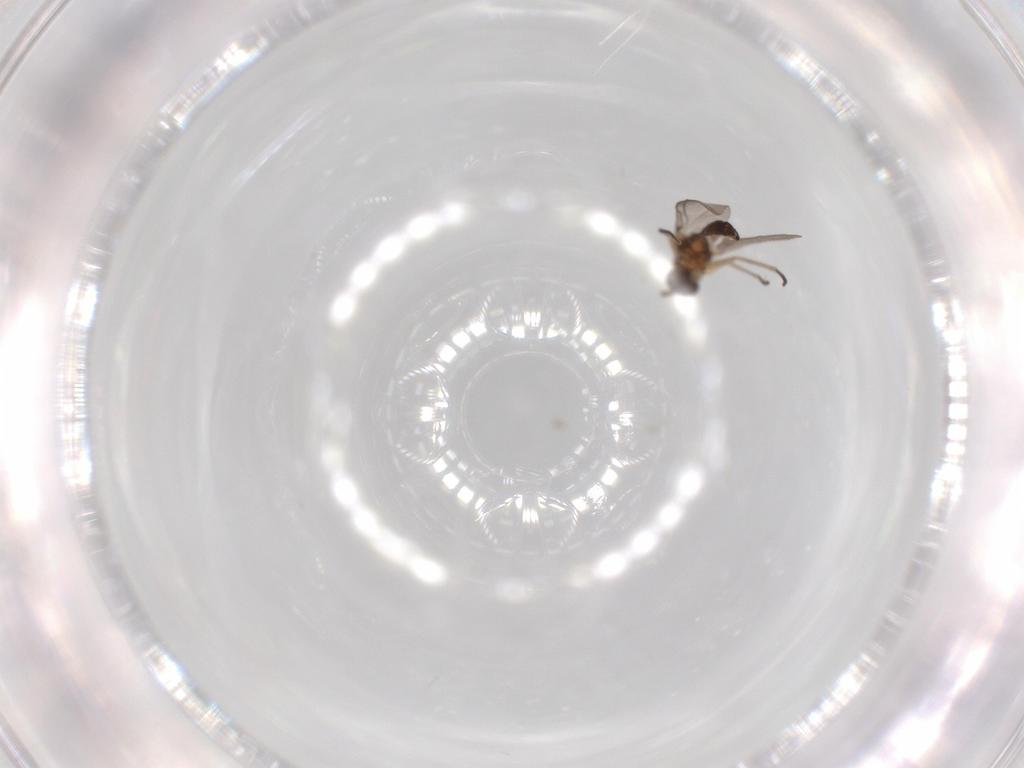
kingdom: Animalia
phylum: Arthropoda
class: Insecta
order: Diptera
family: Sciaridae
